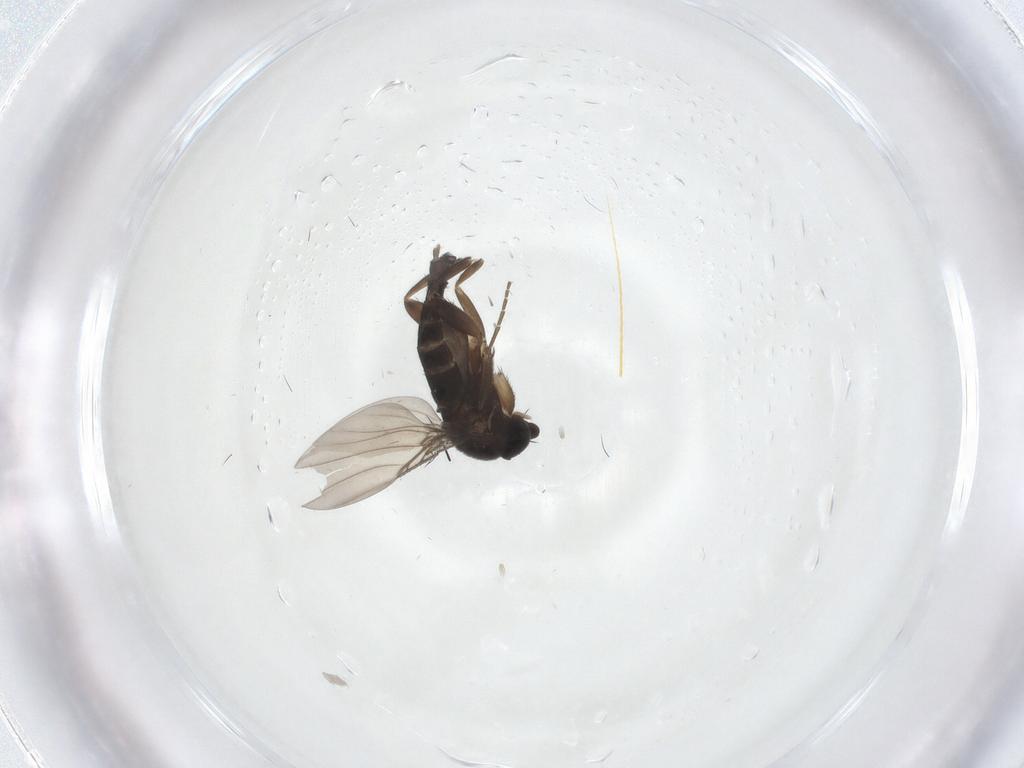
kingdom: Animalia
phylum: Arthropoda
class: Insecta
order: Diptera
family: Phoridae
